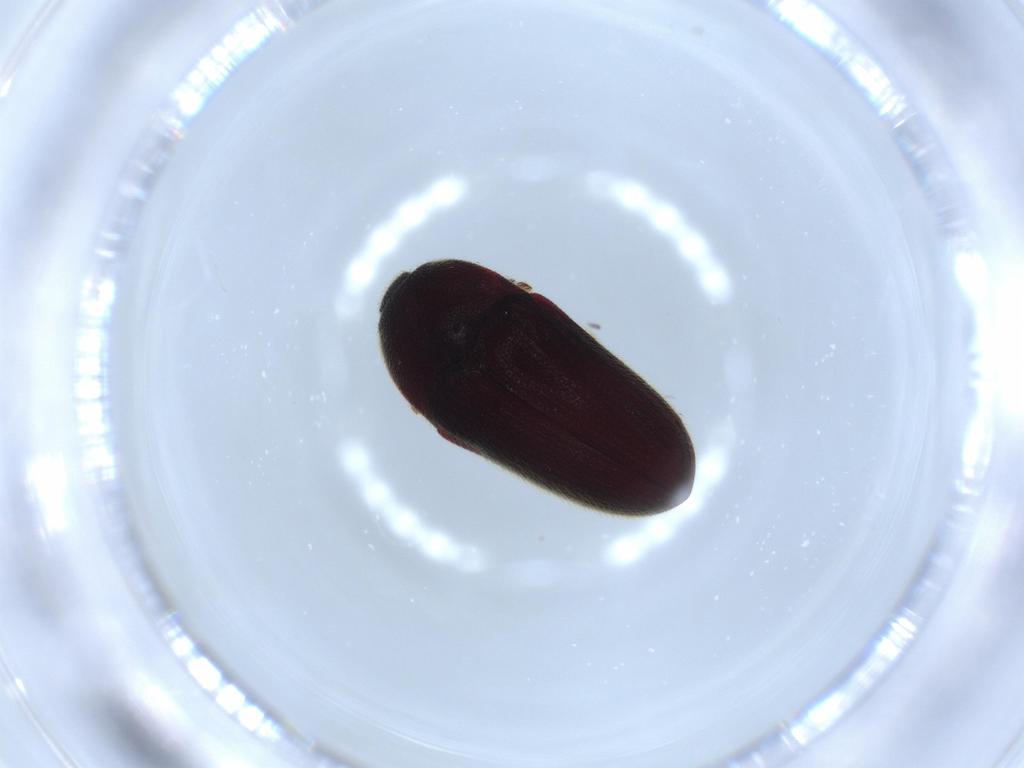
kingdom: Animalia
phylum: Arthropoda
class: Insecta
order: Coleoptera
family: Throscidae
